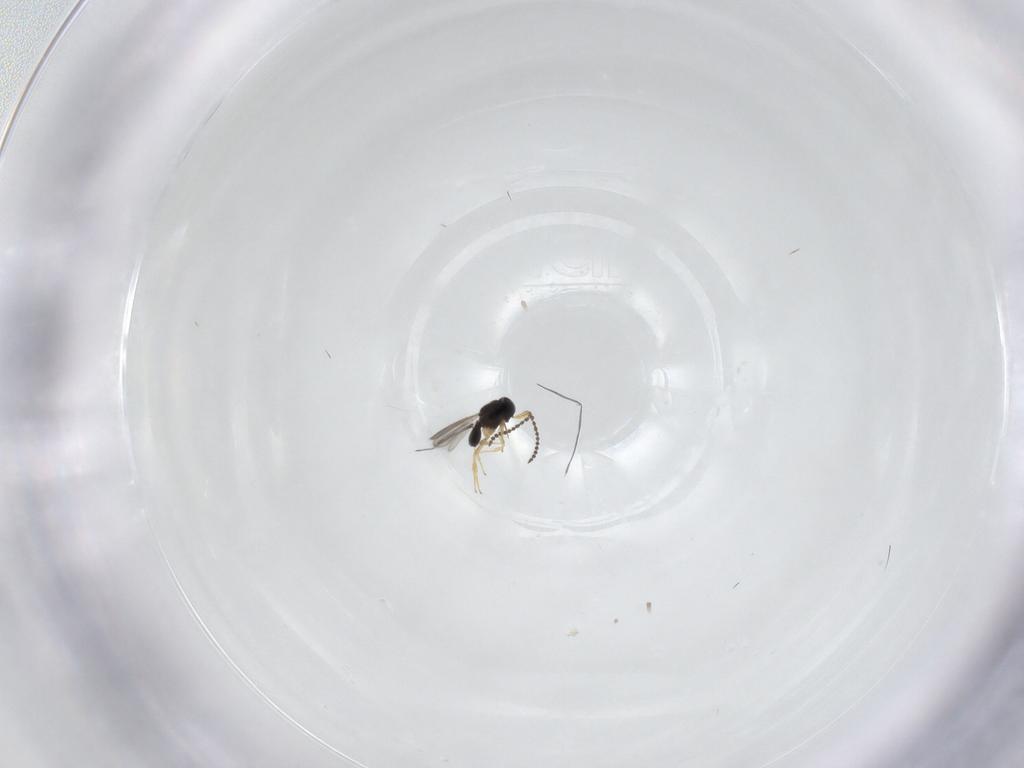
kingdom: Animalia
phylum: Arthropoda
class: Insecta
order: Hymenoptera
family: Scelionidae
